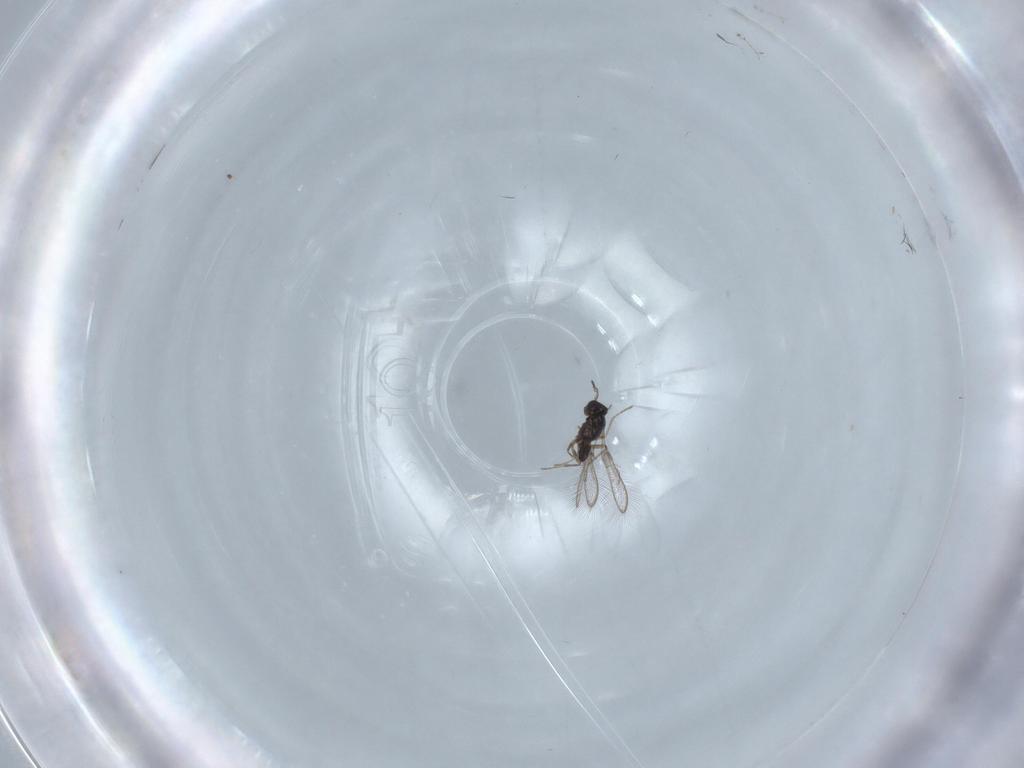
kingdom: Animalia
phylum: Arthropoda
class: Insecta
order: Hymenoptera
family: Mymaridae
